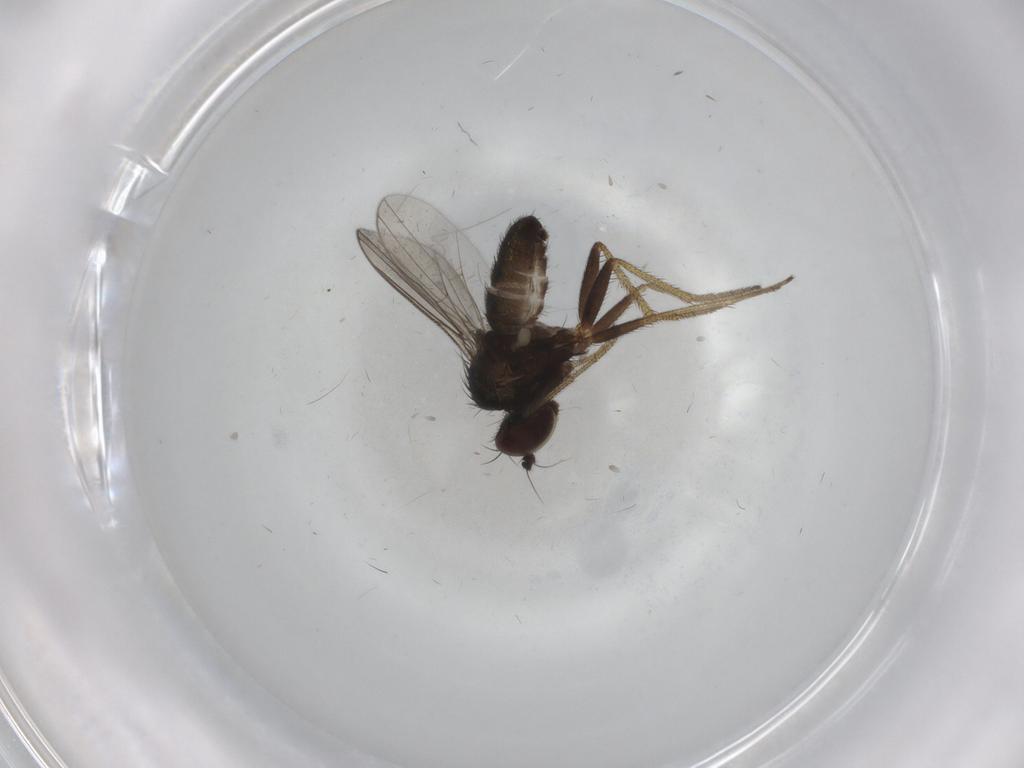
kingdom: Animalia
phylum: Arthropoda
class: Insecta
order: Diptera
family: Dolichopodidae
